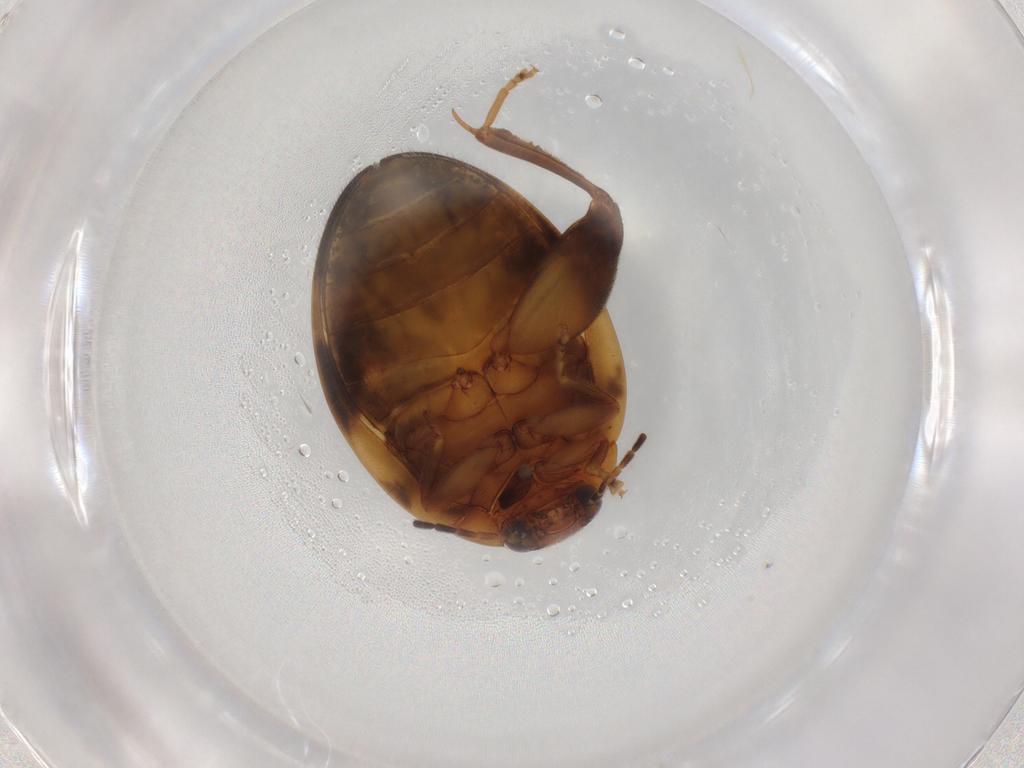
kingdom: Animalia
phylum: Arthropoda
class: Insecta
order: Coleoptera
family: Scirtidae
